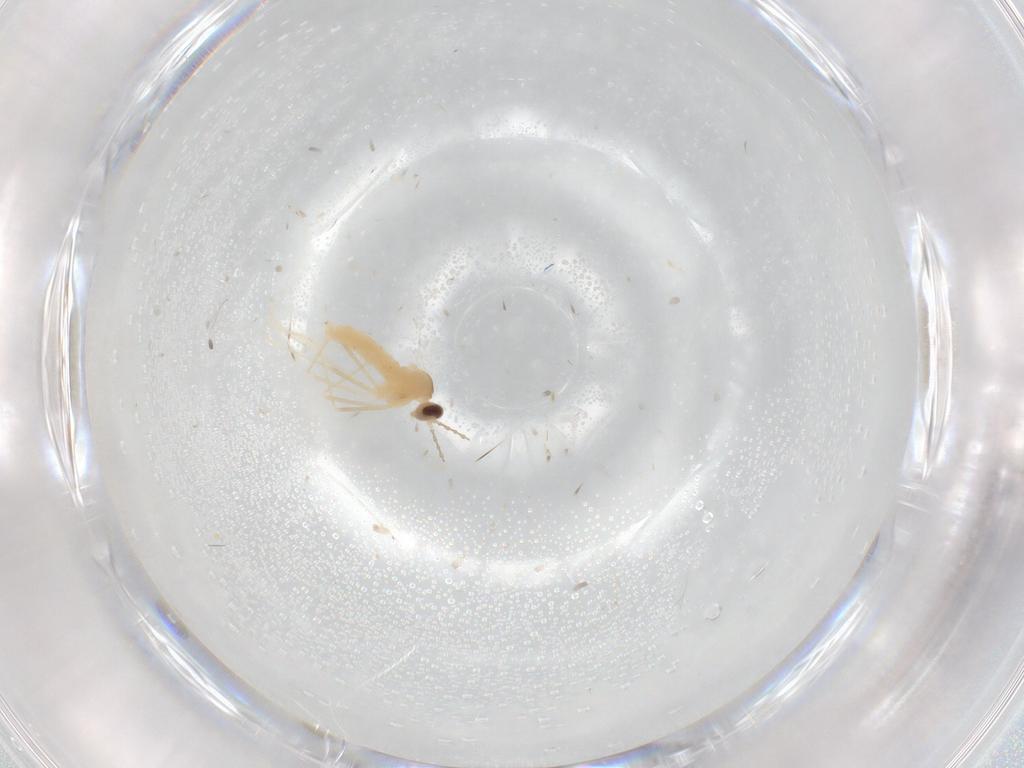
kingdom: Animalia
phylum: Arthropoda
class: Insecta
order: Diptera
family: Cecidomyiidae
